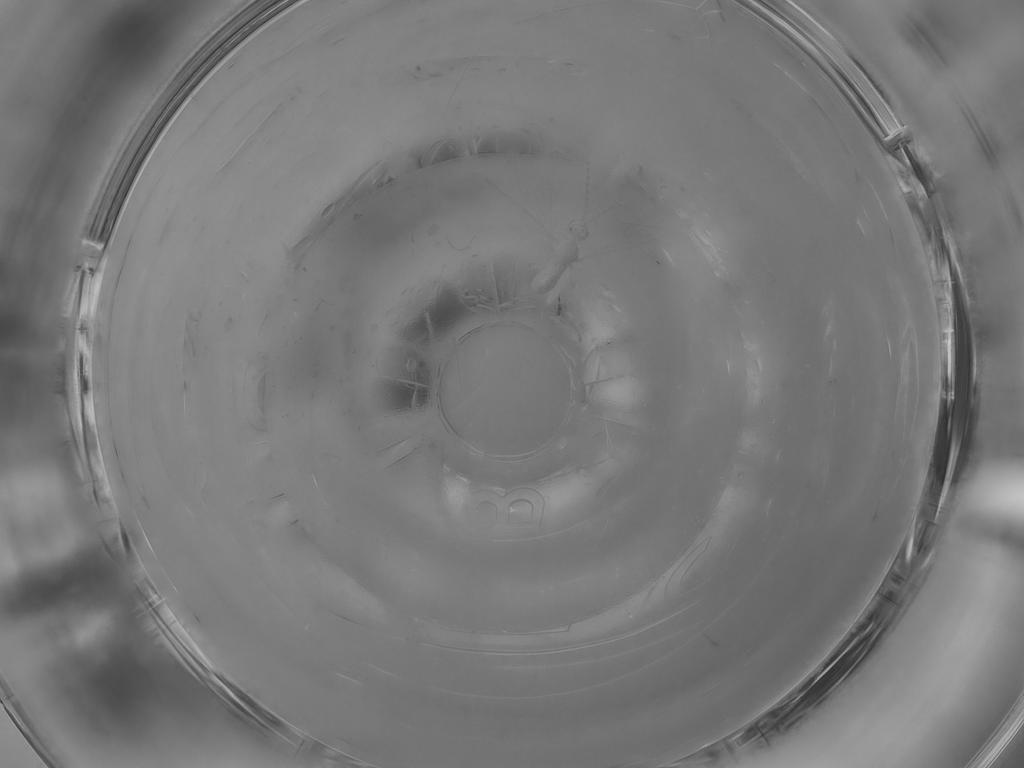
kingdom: Animalia
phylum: Arthropoda
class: Insecta
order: Diptera
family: Cecidomyiidae
